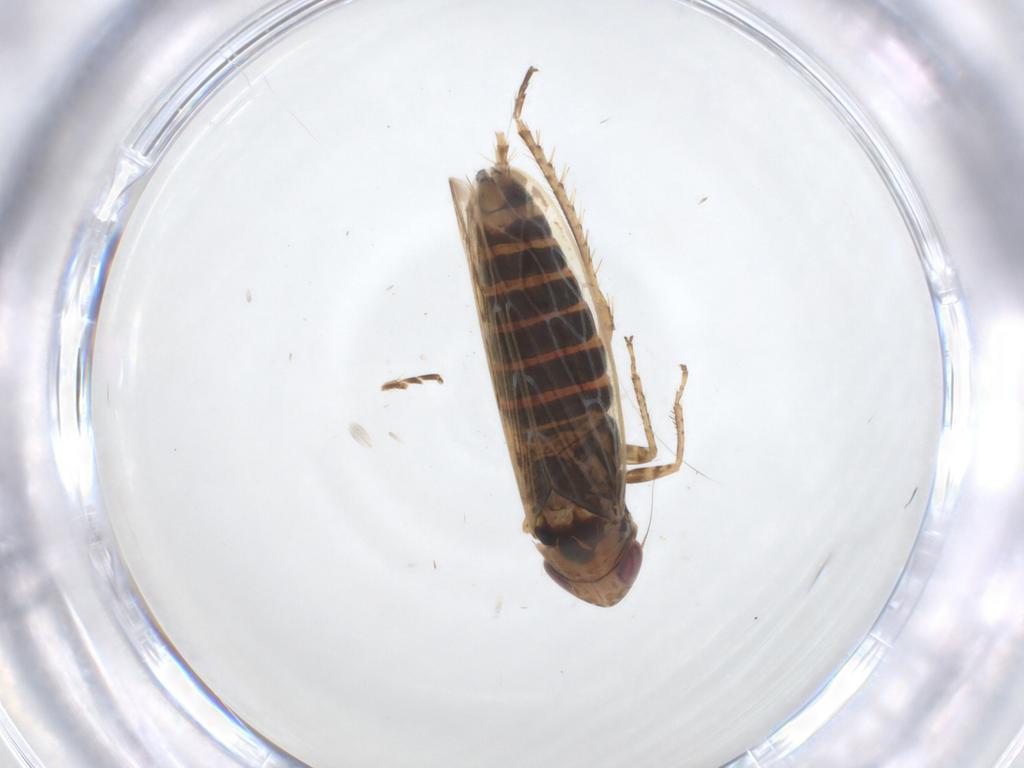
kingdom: Animalia
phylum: Arthropoda
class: Insecta
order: Hemiptera
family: Cicadellidae
